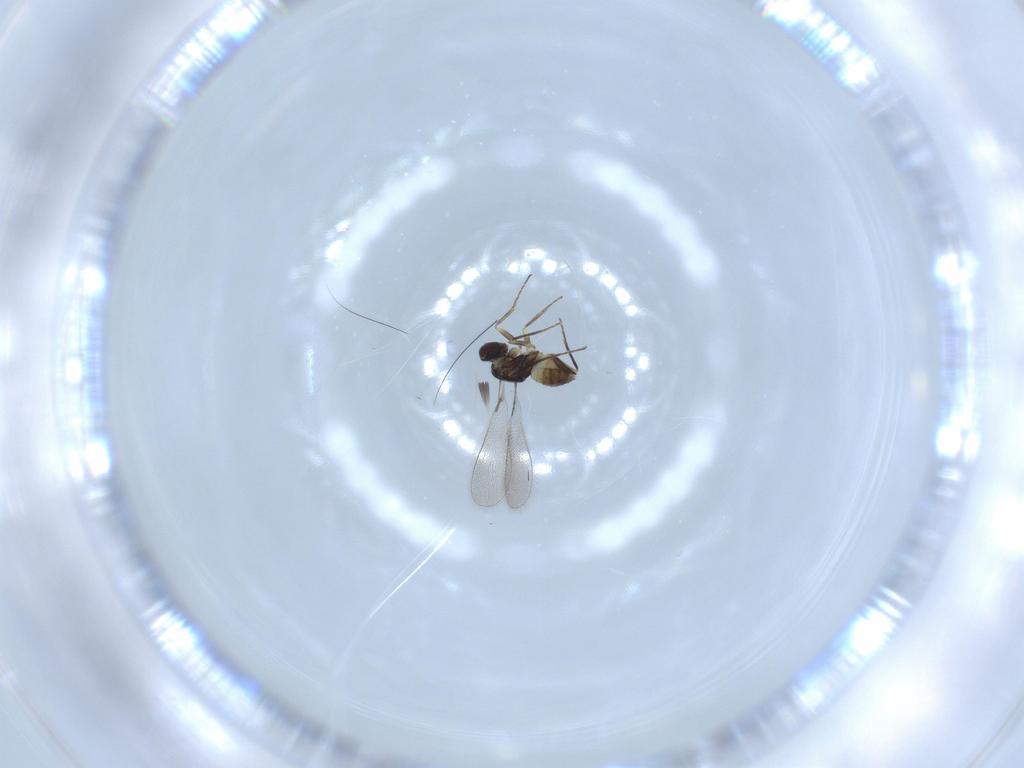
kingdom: Animalia
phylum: Arthropoda
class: Insecta
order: Hymenoptera
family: Mymaridae
